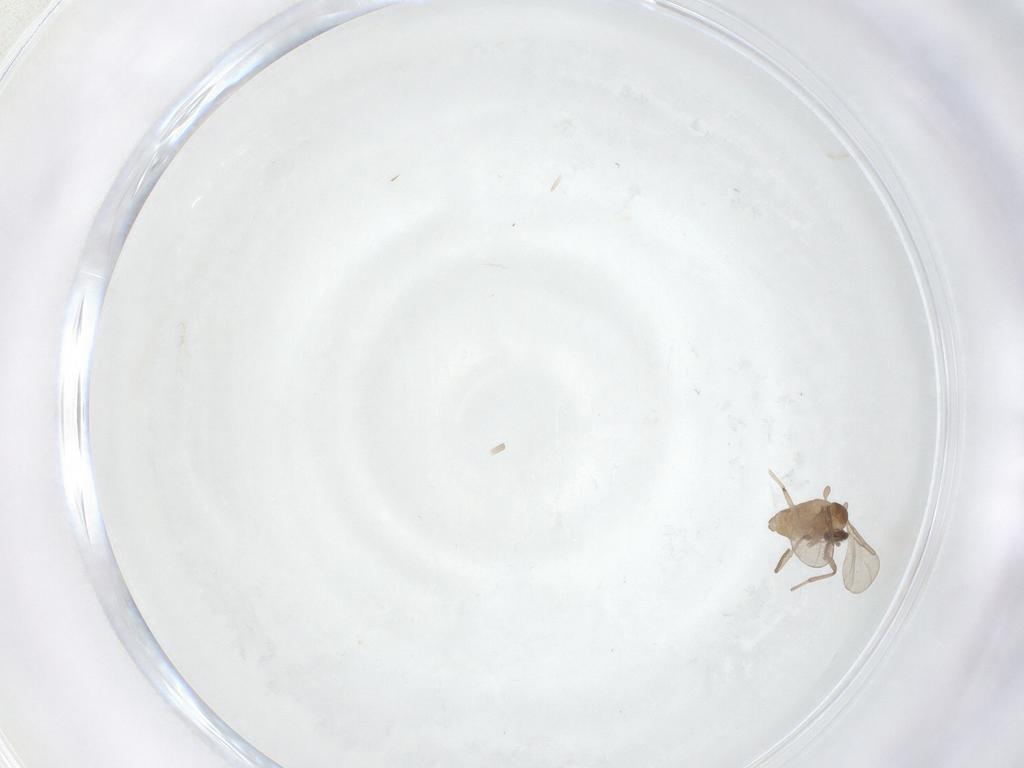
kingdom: Animalia
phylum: Arthropoda
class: Insecta
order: Diptera
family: Cecidomyiidae
